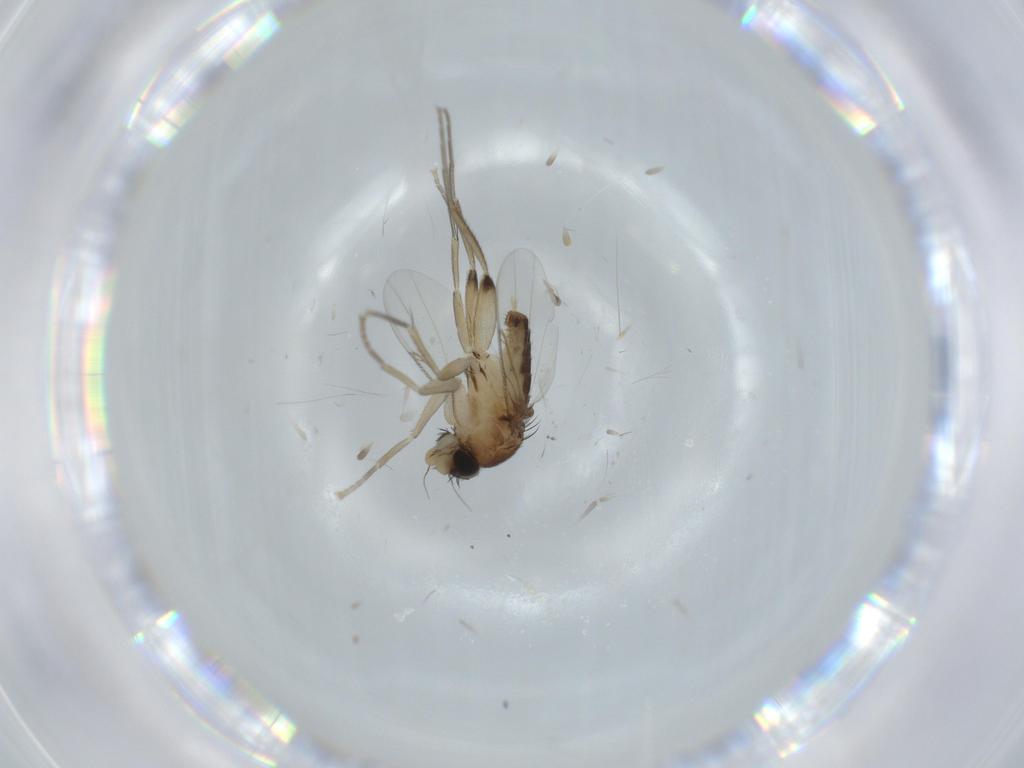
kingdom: Animalia
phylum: Arthropoda
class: Insecta
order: Diptera
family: Phoridae
